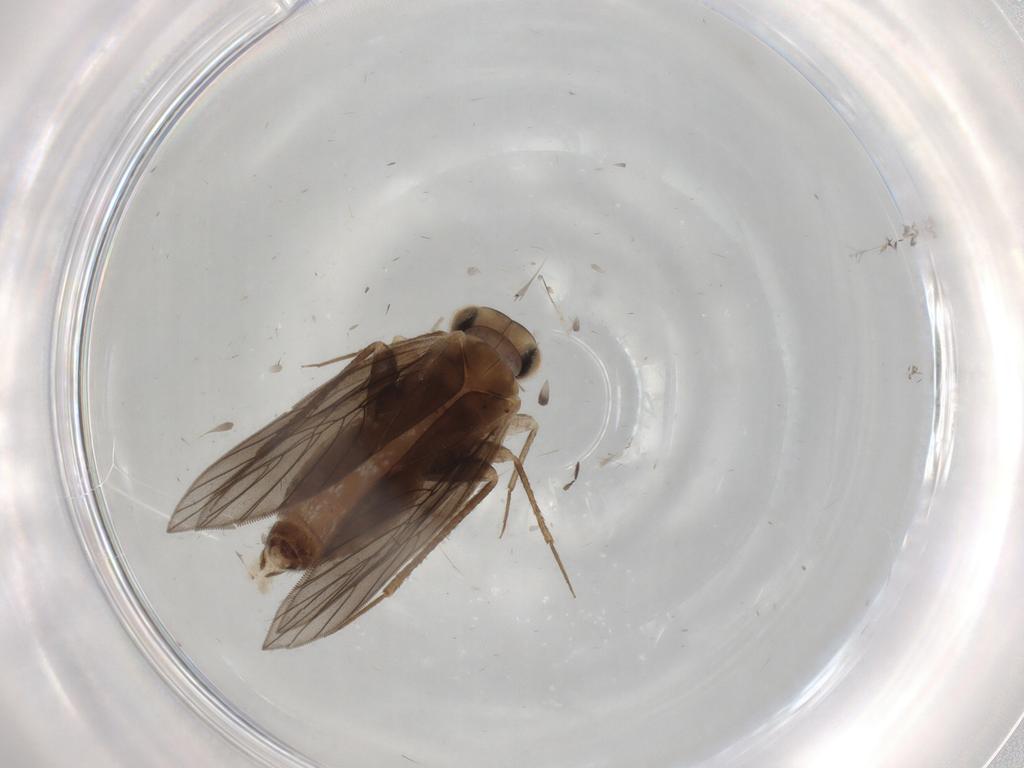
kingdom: Animalia
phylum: Arthropoda
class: Insecta
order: Psocodea
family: Lepidopsocidae
